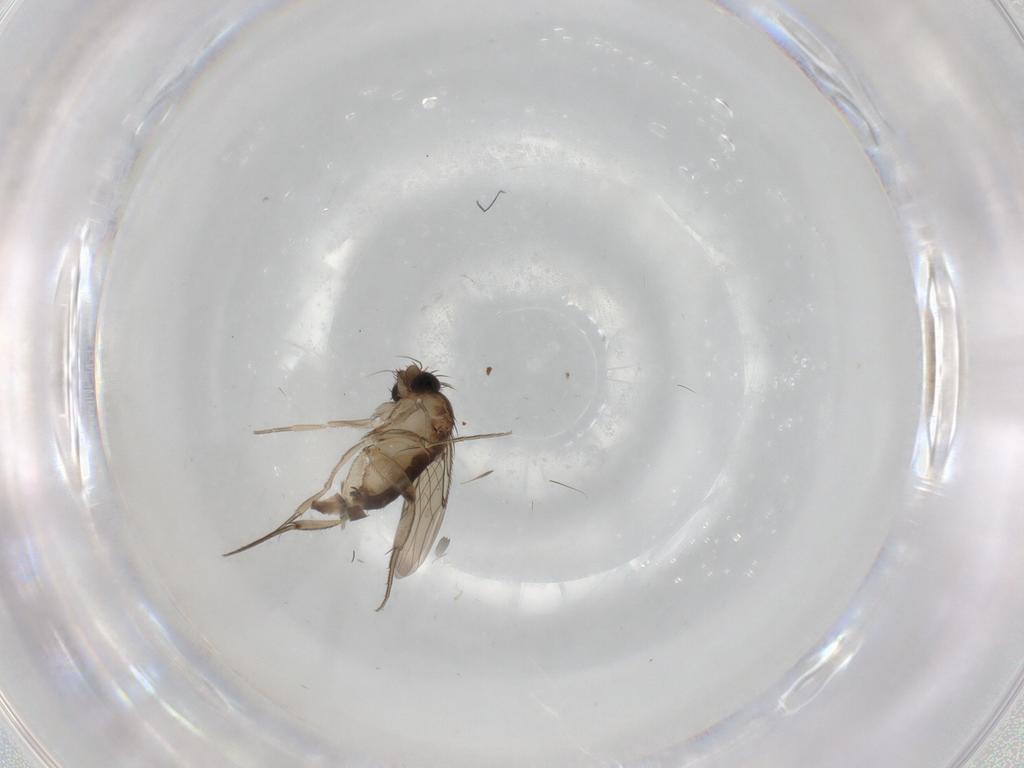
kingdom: Animalia
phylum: Arthropoda
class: Insecta
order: Diptera
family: Phoridae
